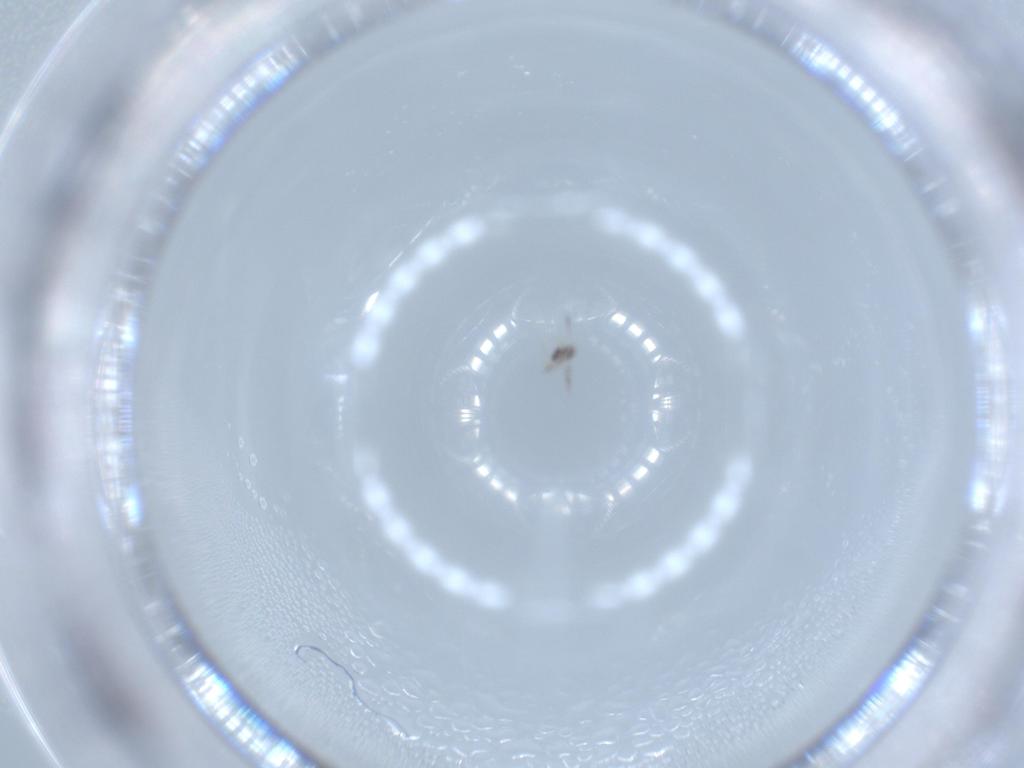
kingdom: Animalia
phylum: Arthropoda
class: Insecta
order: Hymenoptera
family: Mymarommatidae
